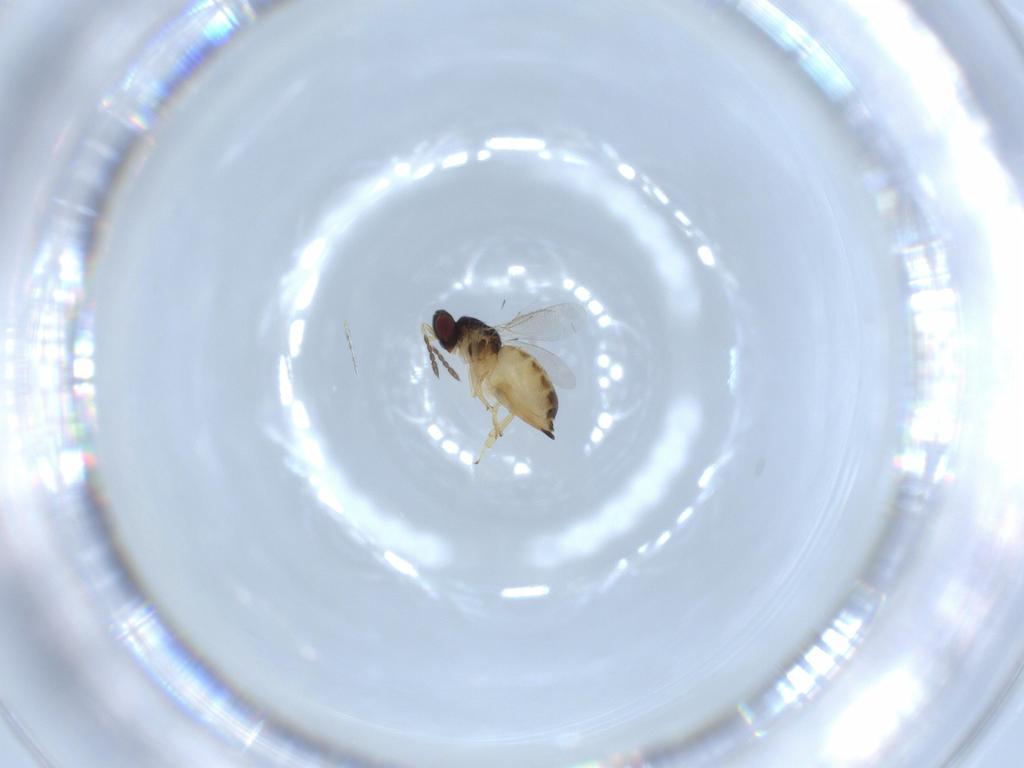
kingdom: Animalia
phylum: Arthropoda
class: Insecta
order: Hymenoptera
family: Eulophidae
